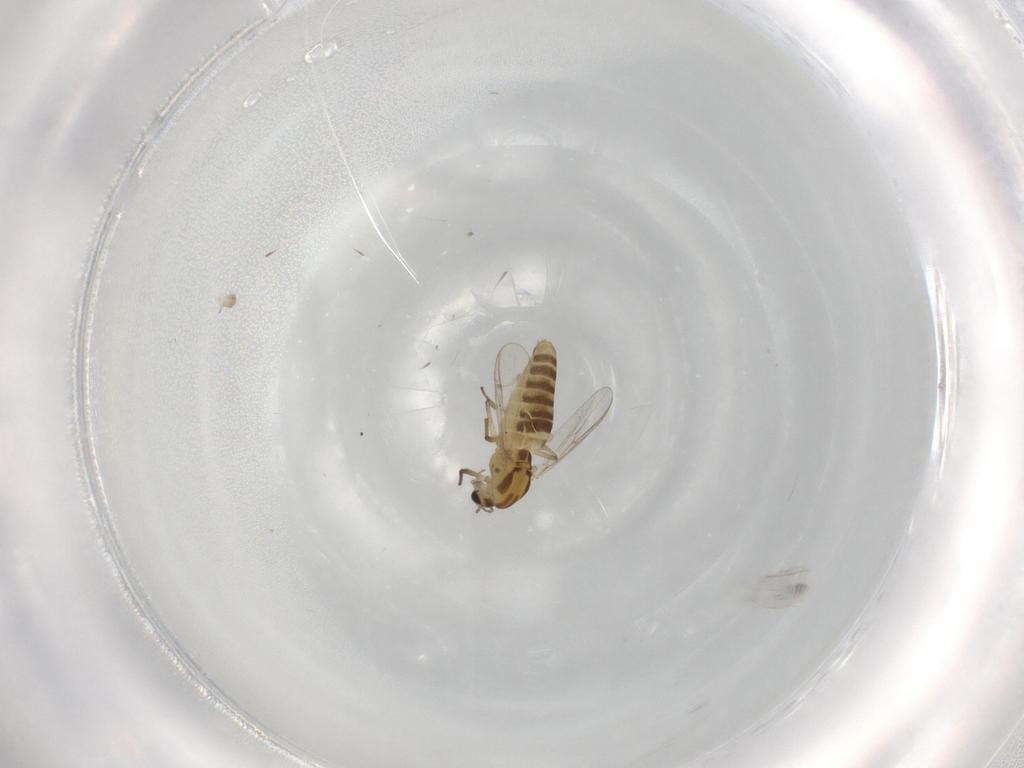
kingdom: Animalia
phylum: Arthropoda
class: Insecta
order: Diptera
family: Chironomidae
